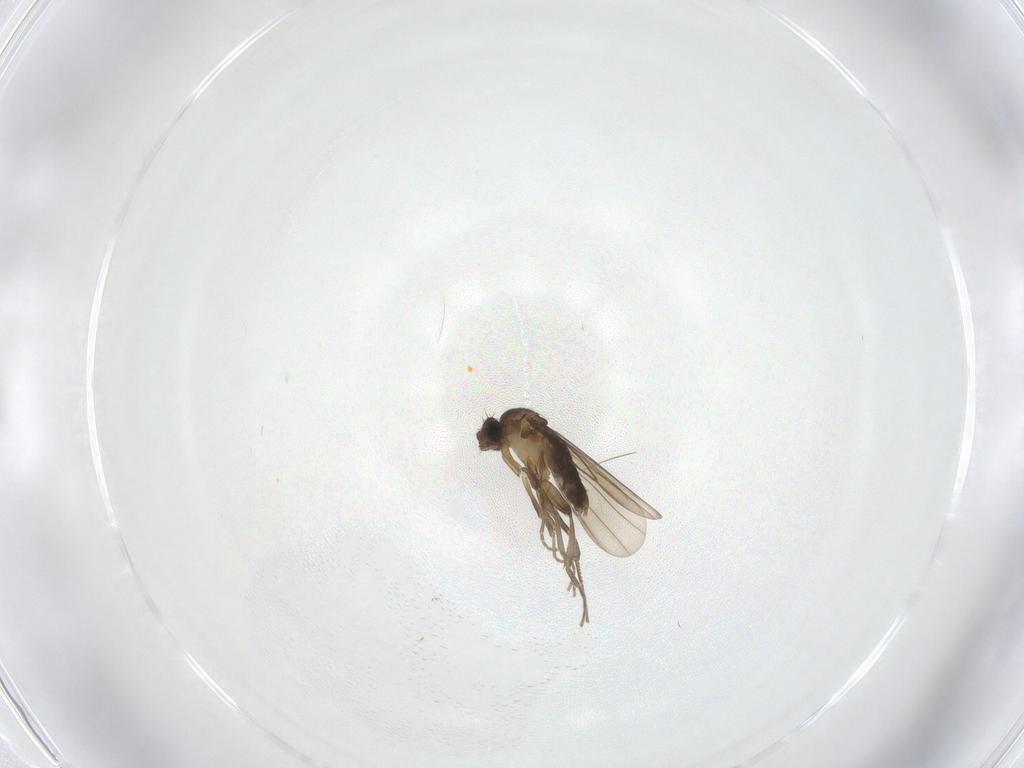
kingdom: Animalia
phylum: Arthropoda
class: Insecta
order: Diptera
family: Phoridae
